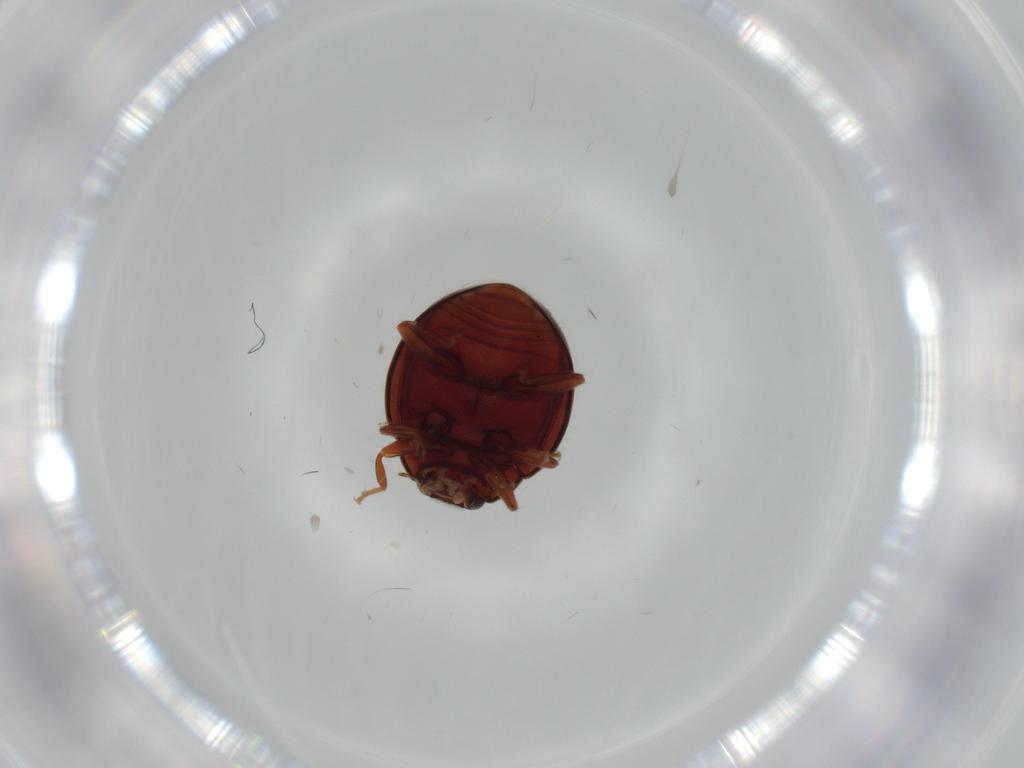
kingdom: Animalia
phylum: Arthropoda
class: Insecta
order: Coleoptera
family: Coccinellidae
